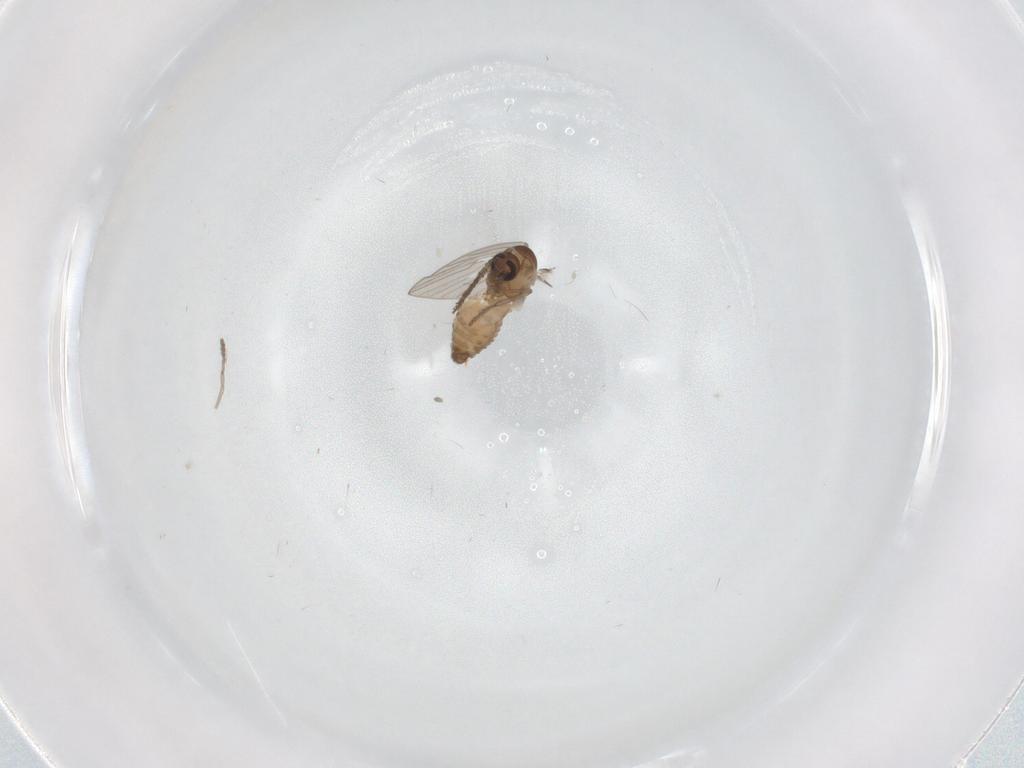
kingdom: Animalia
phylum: Arthropoda
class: Insecta
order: Diptera
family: Psychodidae
